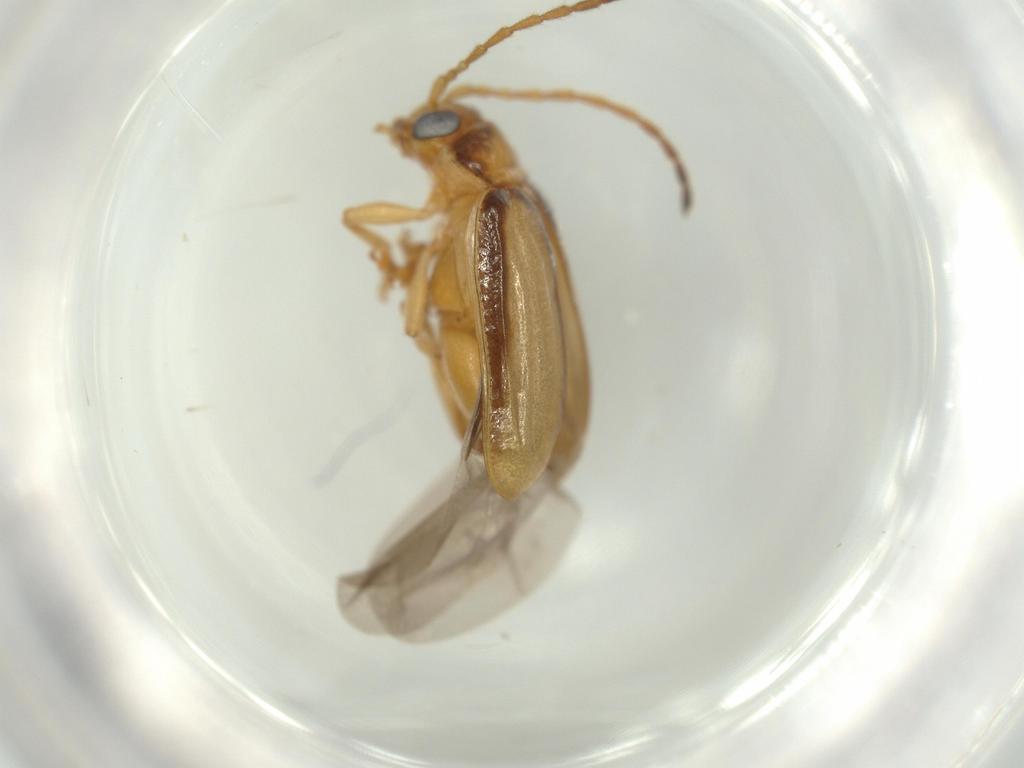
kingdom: Animalia
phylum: Arthropoda
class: Insecta
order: Coleoptera
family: Chrysomelidae
